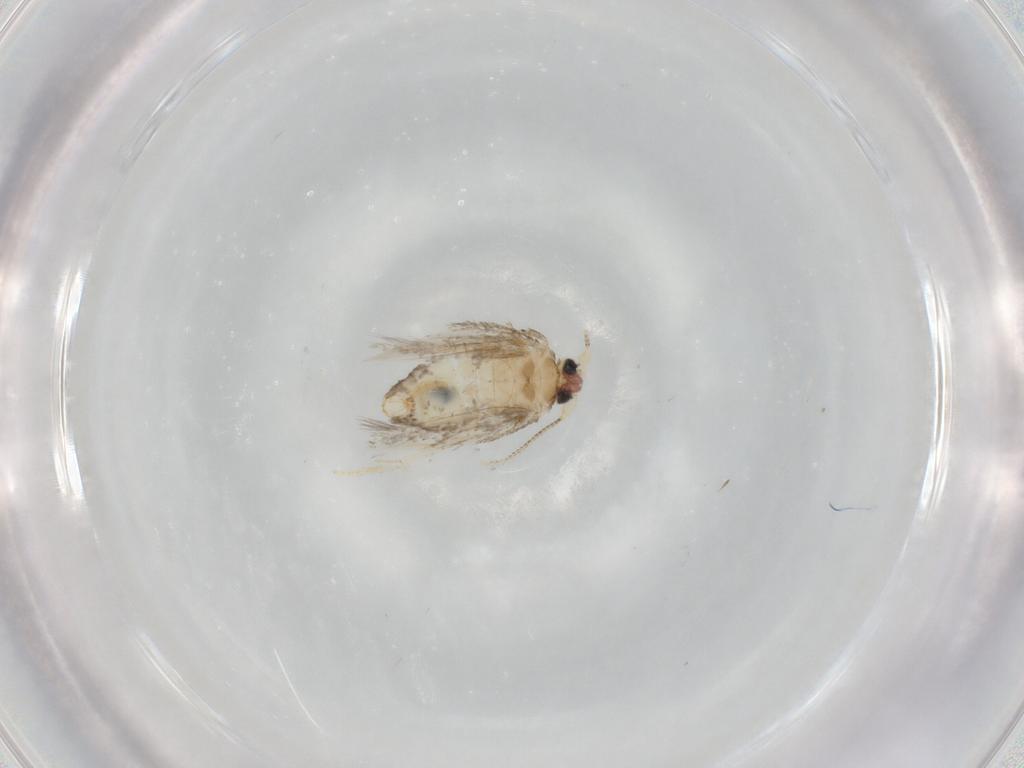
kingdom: Animalia
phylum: Arthropoda
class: Insecta
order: Lepidoptera
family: Nepticulidae
